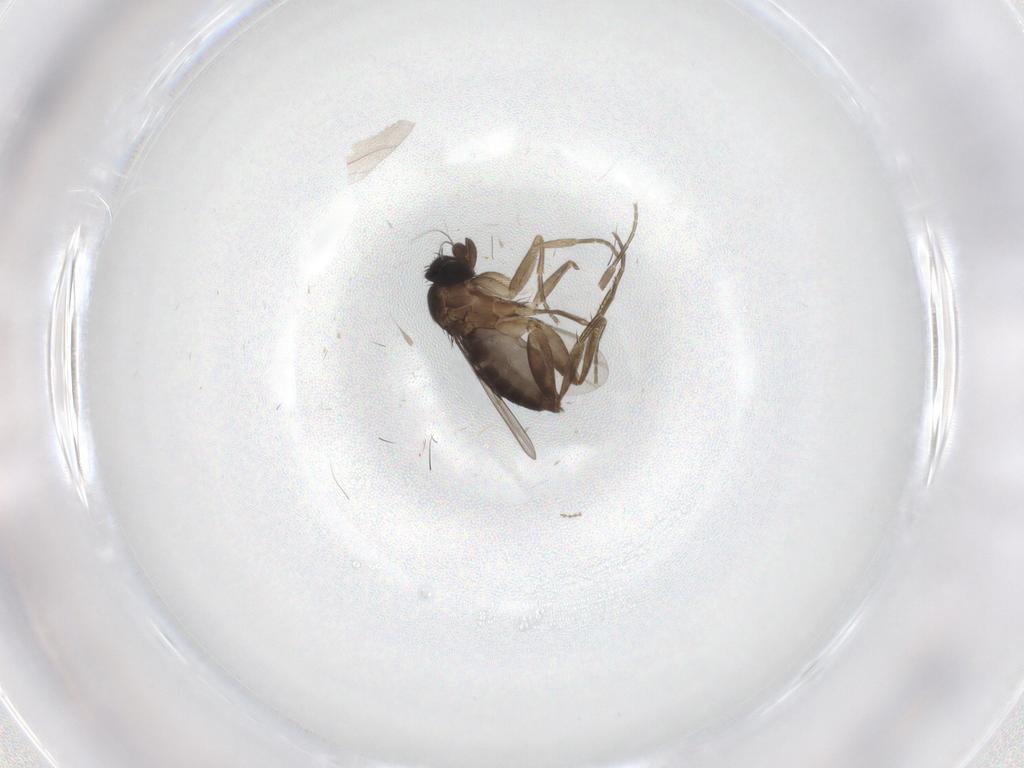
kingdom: Animalia
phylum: Arthropoda
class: Insecta
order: Diptera
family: Phoridae
